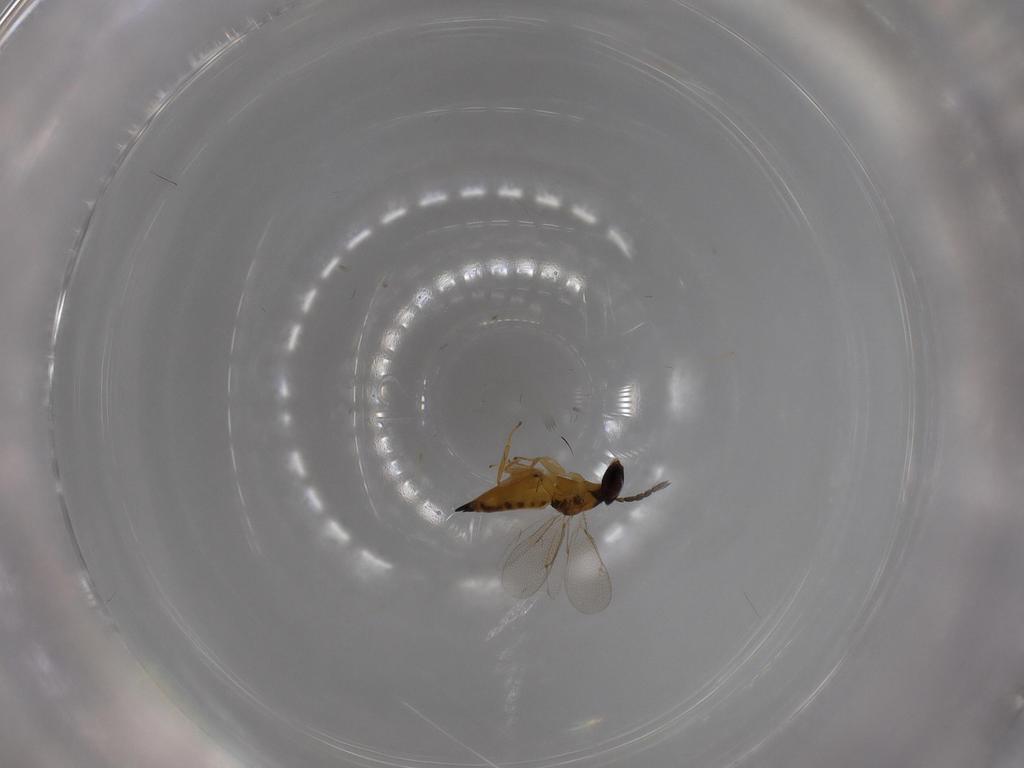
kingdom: Animalia
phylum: Arthropoda
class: Insecta
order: Hymenoptera
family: Eulophidae
